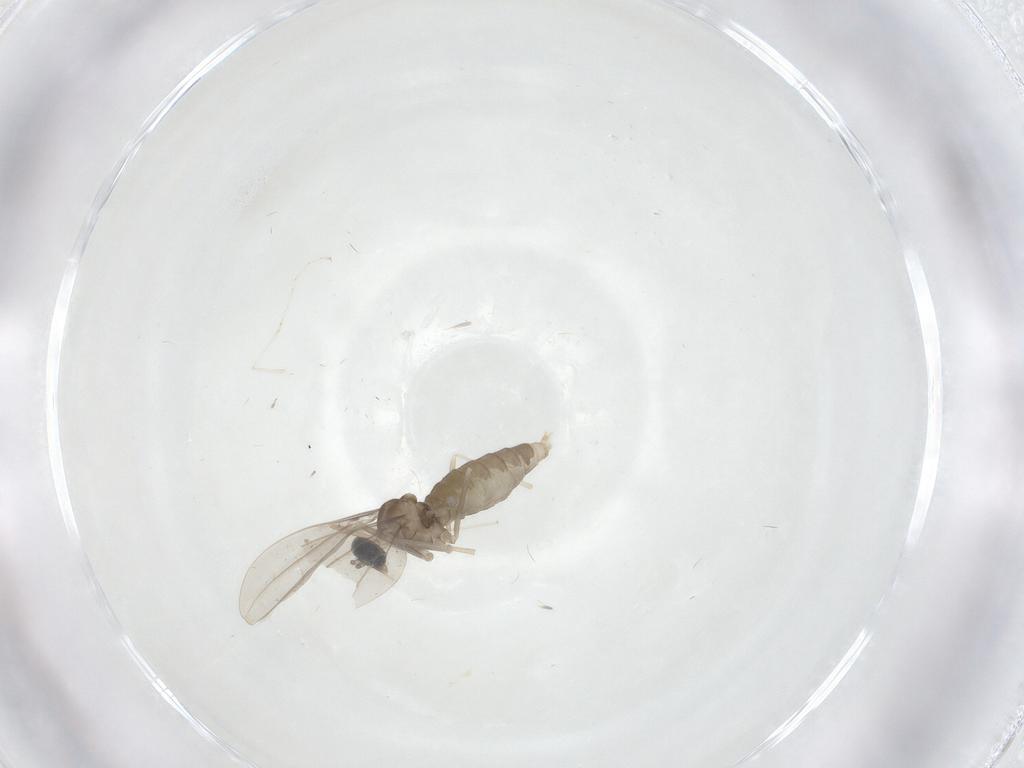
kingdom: Animalia
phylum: Arthropoda
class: Insecta
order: Diptera
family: Cecidomyiidae
